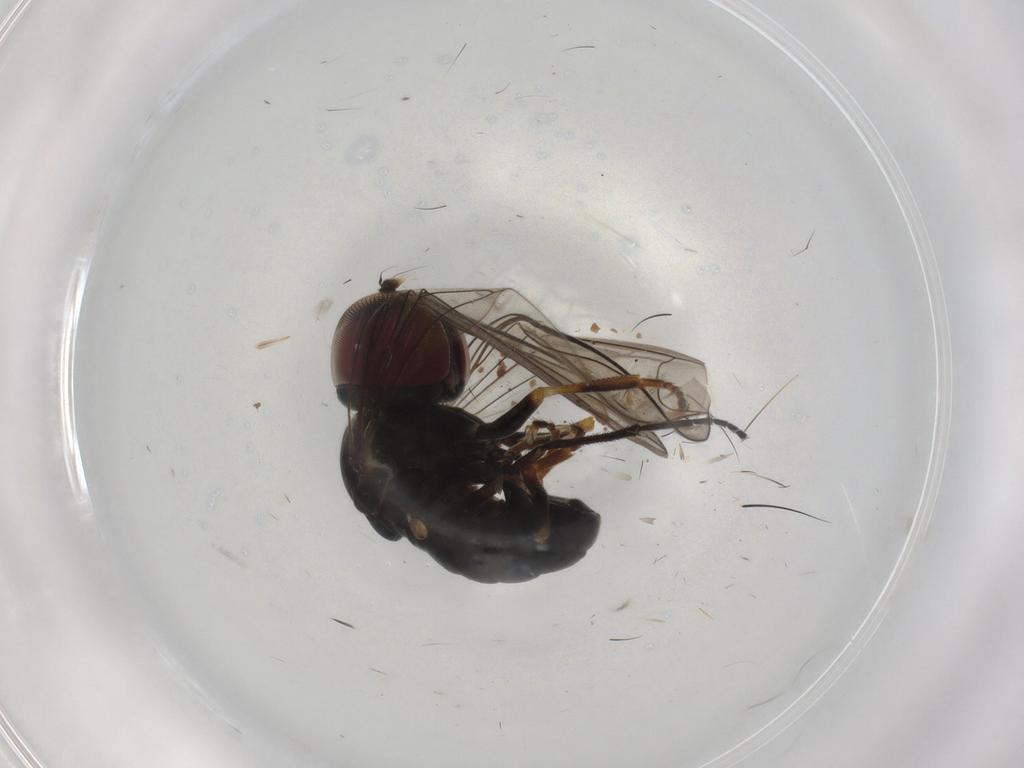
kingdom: Animalia
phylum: Arthropoda
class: Insecta
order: Diptera
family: Pipunculidae
